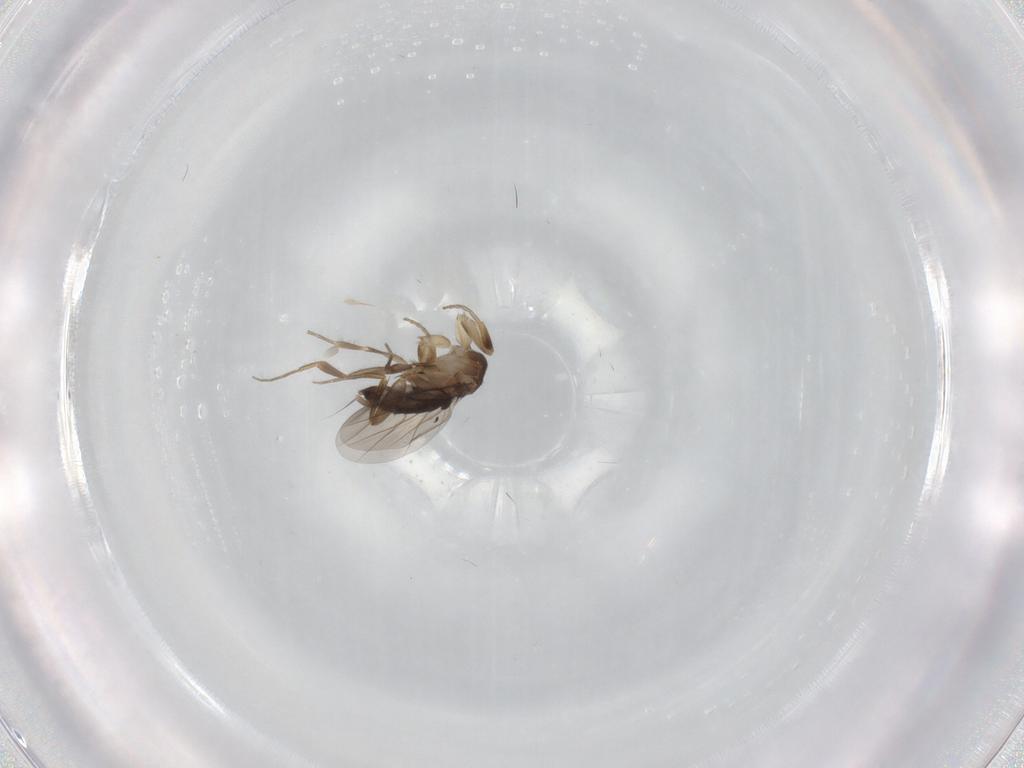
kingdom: Animalia
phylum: Arthropoda
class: Insecta
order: Diptera
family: Phoridae
